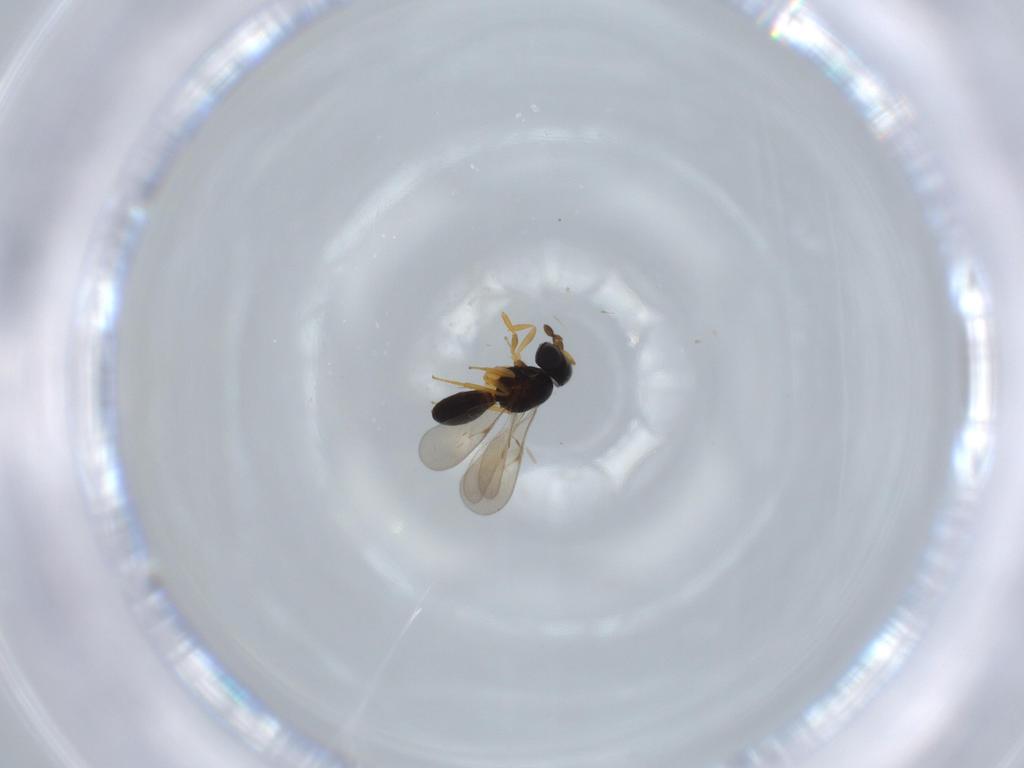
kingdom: Animalia
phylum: Arthropoda
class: Insecta
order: Hymenoptera
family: Scelionidae
